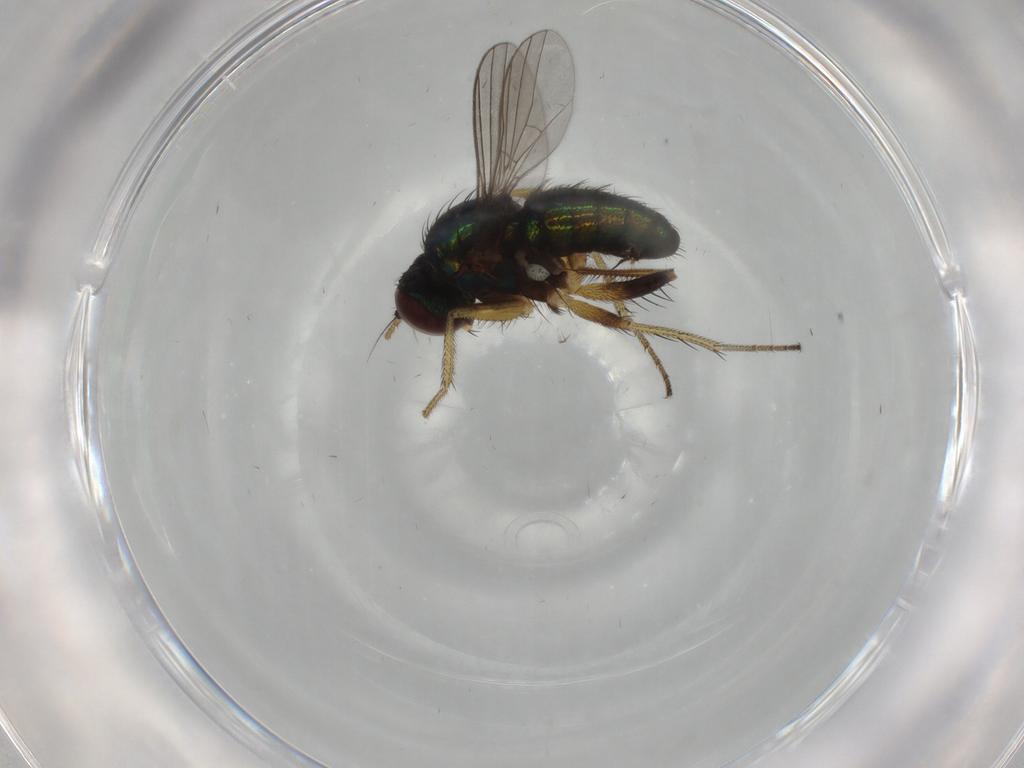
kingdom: Animalia
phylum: Arthropoda
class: Insecta
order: Diptera
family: Dolichopodidae
